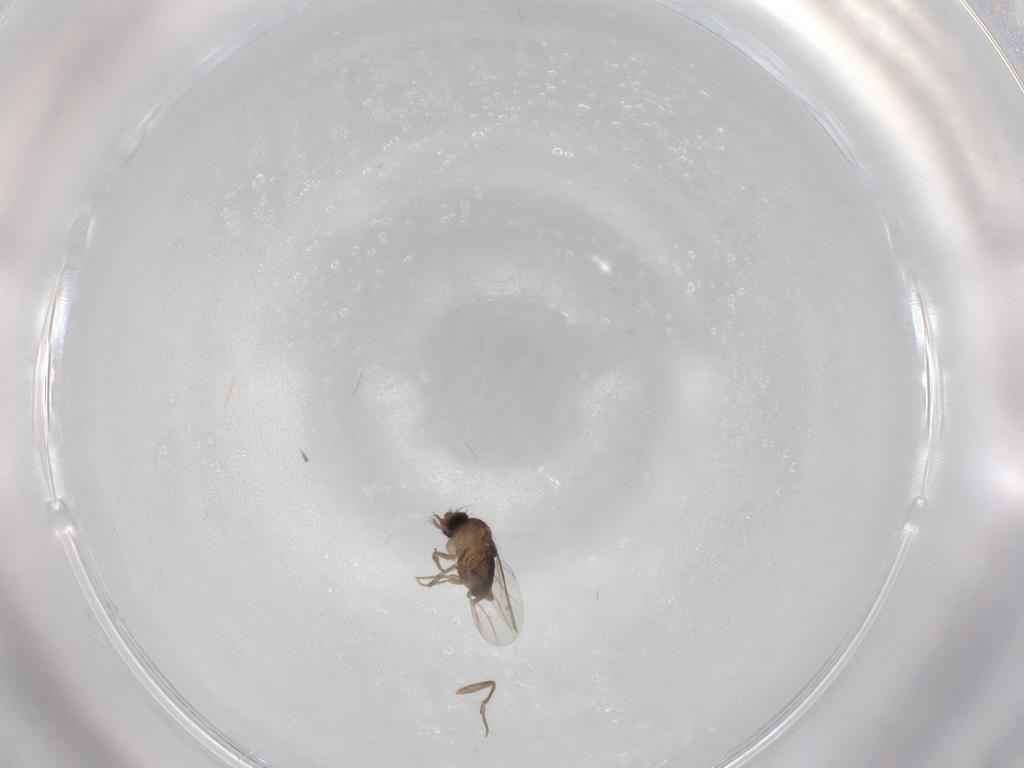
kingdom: Animalia
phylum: Arthropoda
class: Insecta
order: Diptera
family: Phoridae
